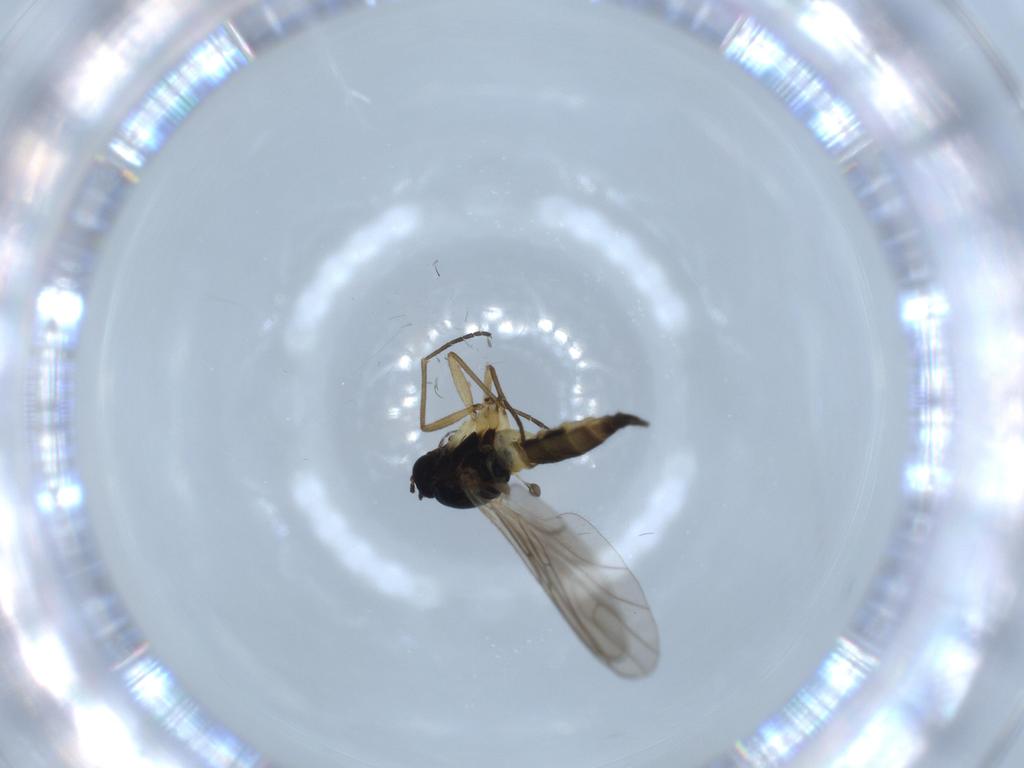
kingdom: Animalia
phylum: Arthropoda
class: Insecta
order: Diptera
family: Sciaridae
